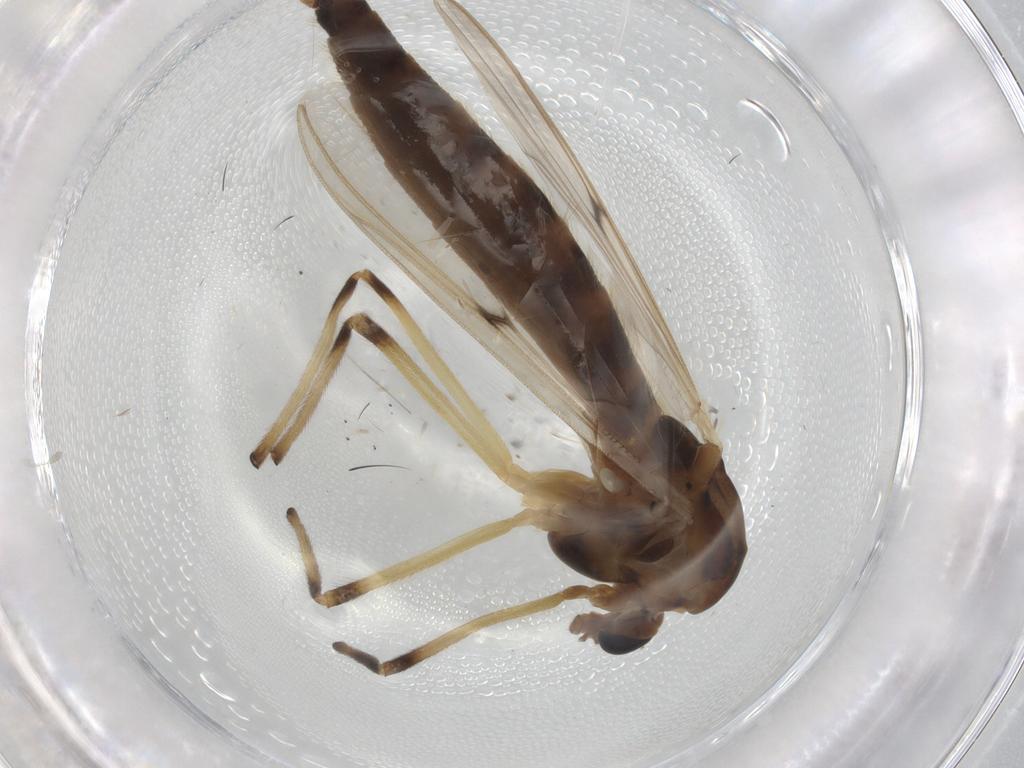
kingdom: Animalia
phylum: Arthropoda
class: Insecta
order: Diptera
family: Chironomidae
